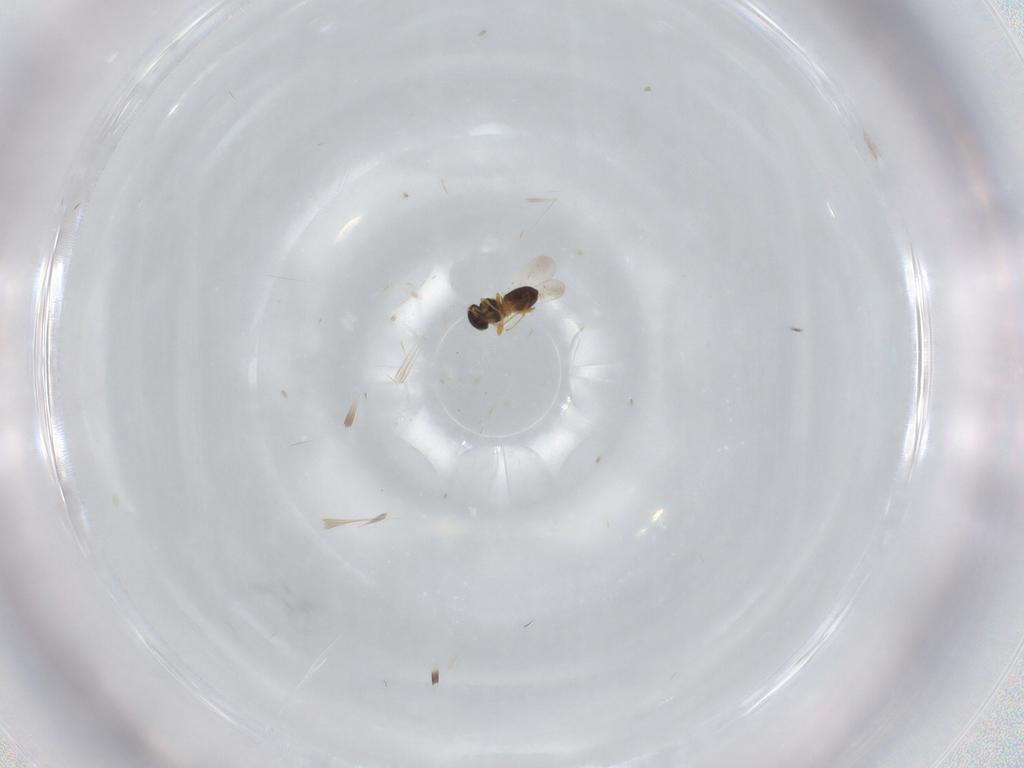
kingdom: Animalia
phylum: Arthropoda
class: Insecta
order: Hymenoptera
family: Platygastridae
